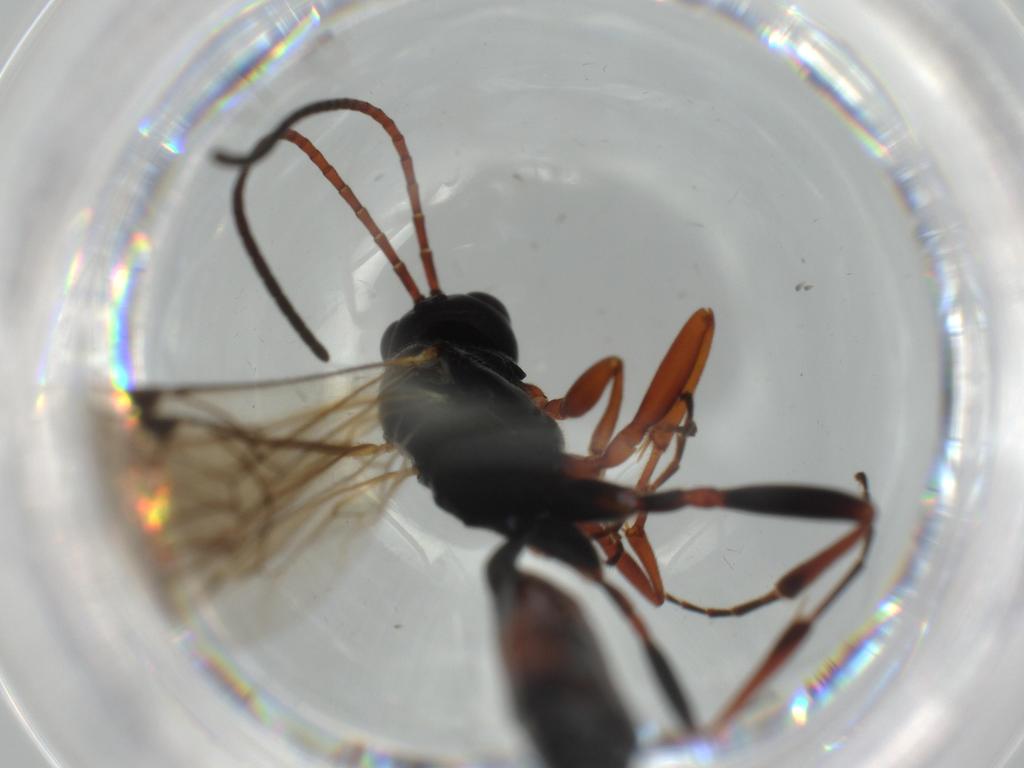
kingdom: Animalia
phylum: Arthropoda
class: Insecta
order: Hymenoptera
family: Ichneumonidae
